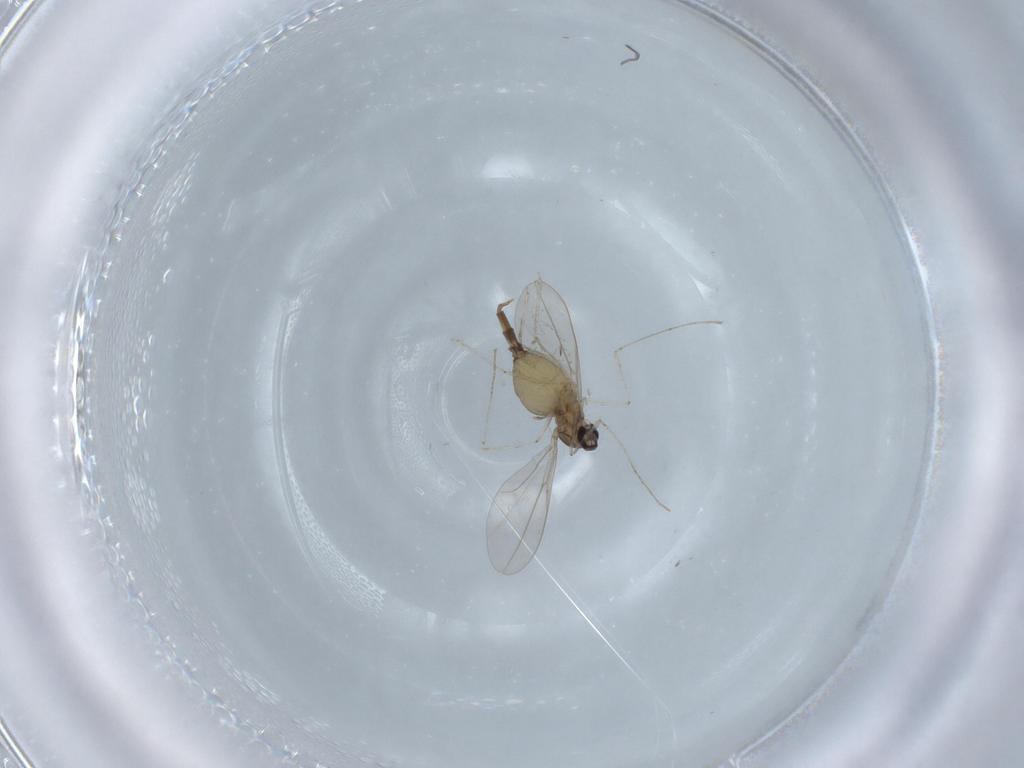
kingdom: Animalia
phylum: Arthropoda
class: Insecta
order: Diptera
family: Cecidomyiidae
